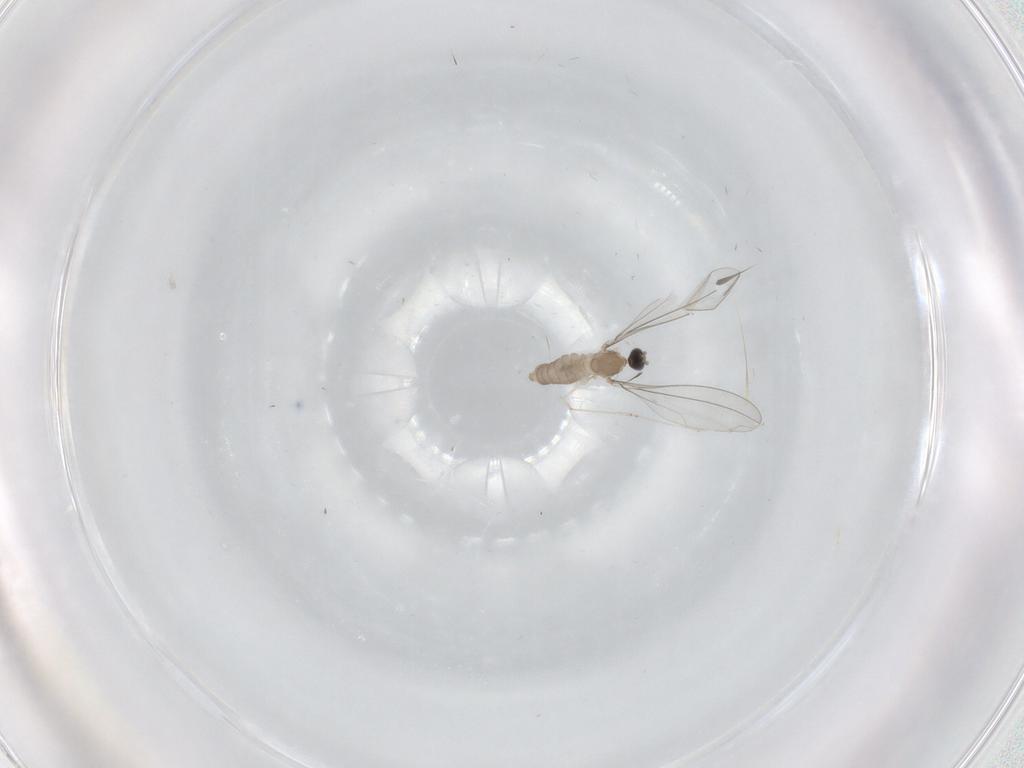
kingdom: Animalia
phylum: Arthropoda
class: Insecta
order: Diptera
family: Cecidomyiidae
